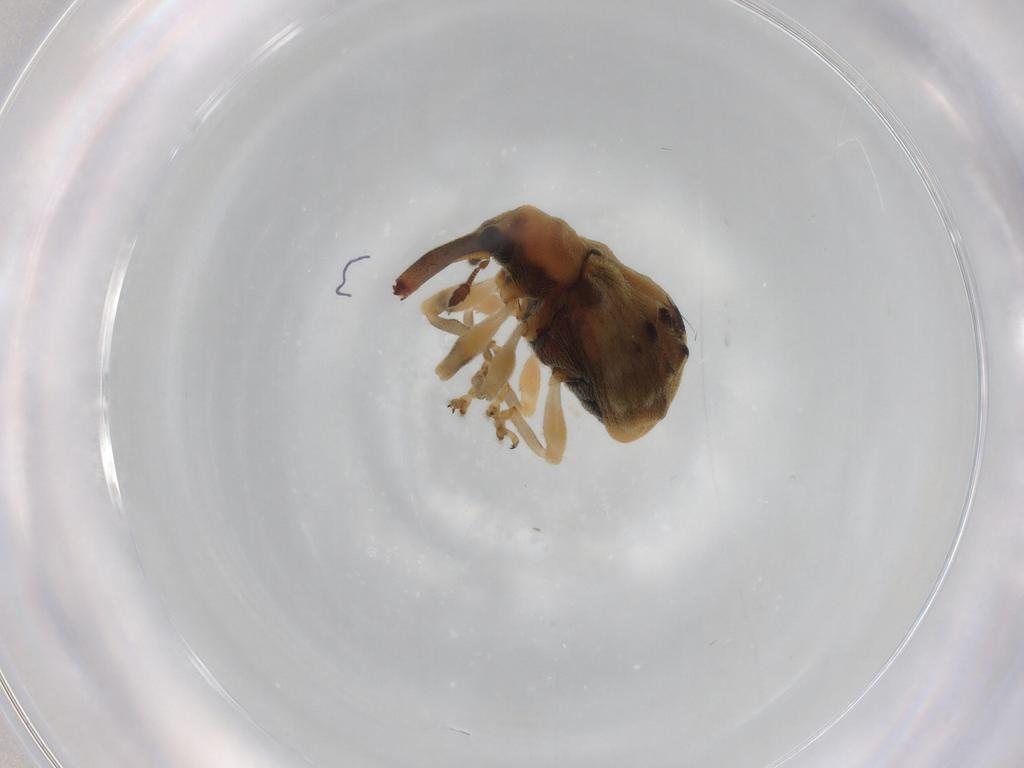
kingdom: Animalia
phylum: Arthropoda
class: Insecta
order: Coleoptera
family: Curculionidae
